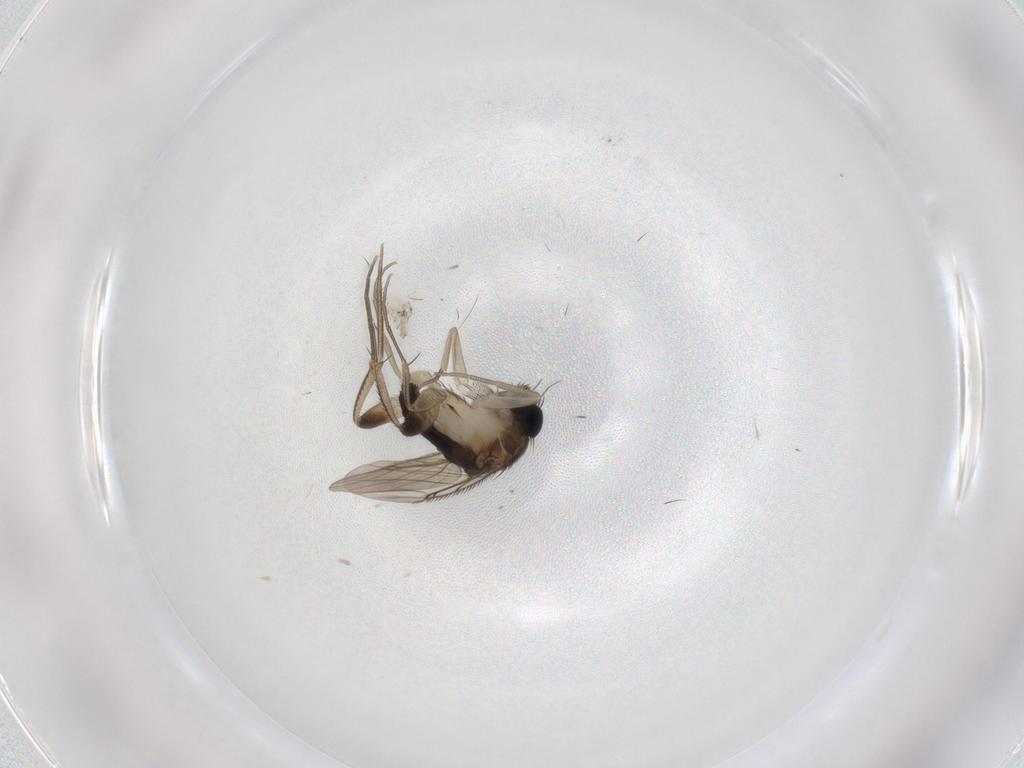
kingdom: Animalia
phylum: Arthropoda
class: Insecta
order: Diptera
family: Phoridae
